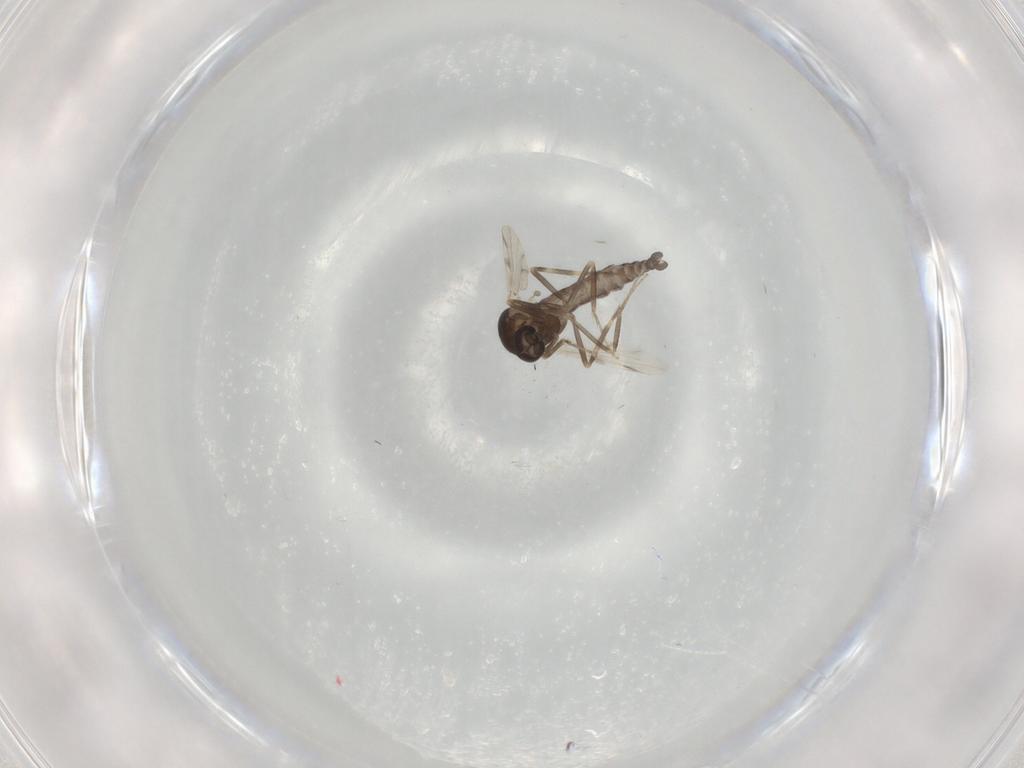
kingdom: Animalia
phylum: Arthropoda
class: Insecta
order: Diptera
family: Ceratopogonidae
